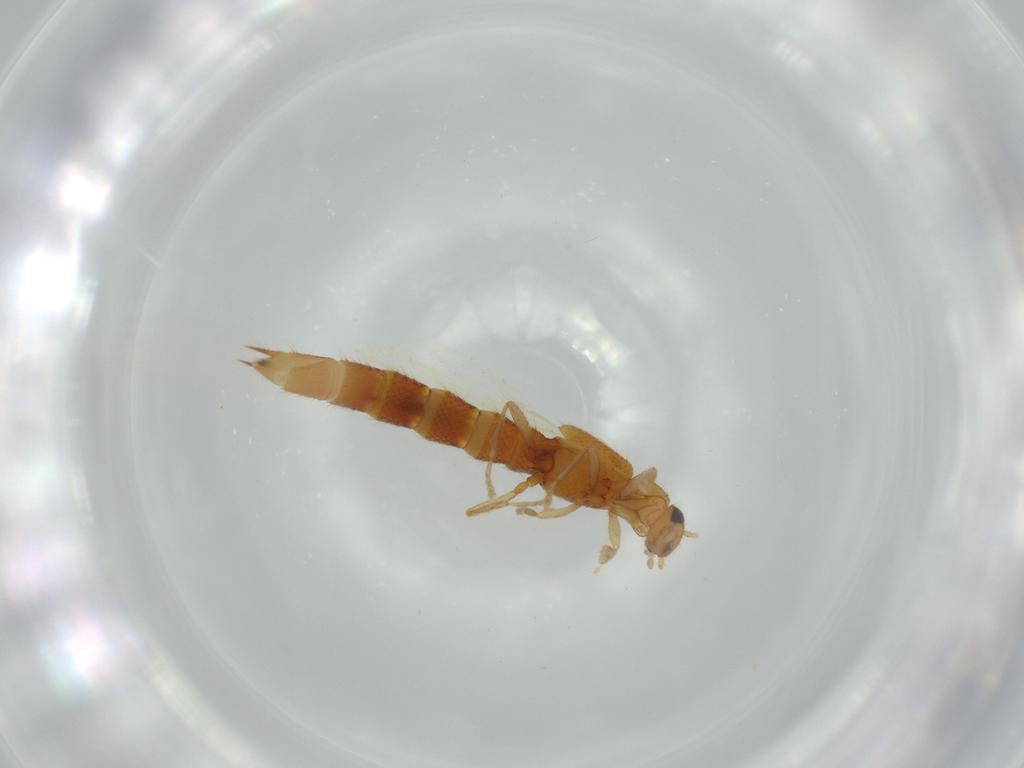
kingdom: Animalia
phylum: Arthropoda
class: Insecta
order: Coleoptera
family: Staphylinidae
